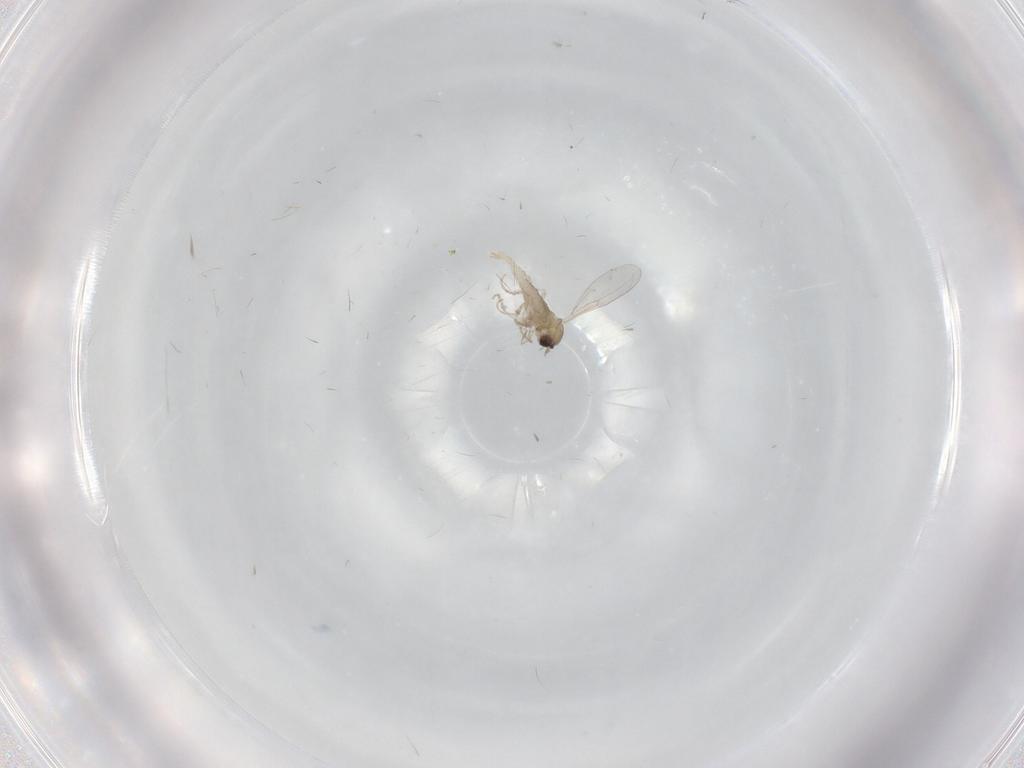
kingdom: Animalia
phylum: Arthropoda
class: Insecta
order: Diptera
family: Cecidomyiidae
